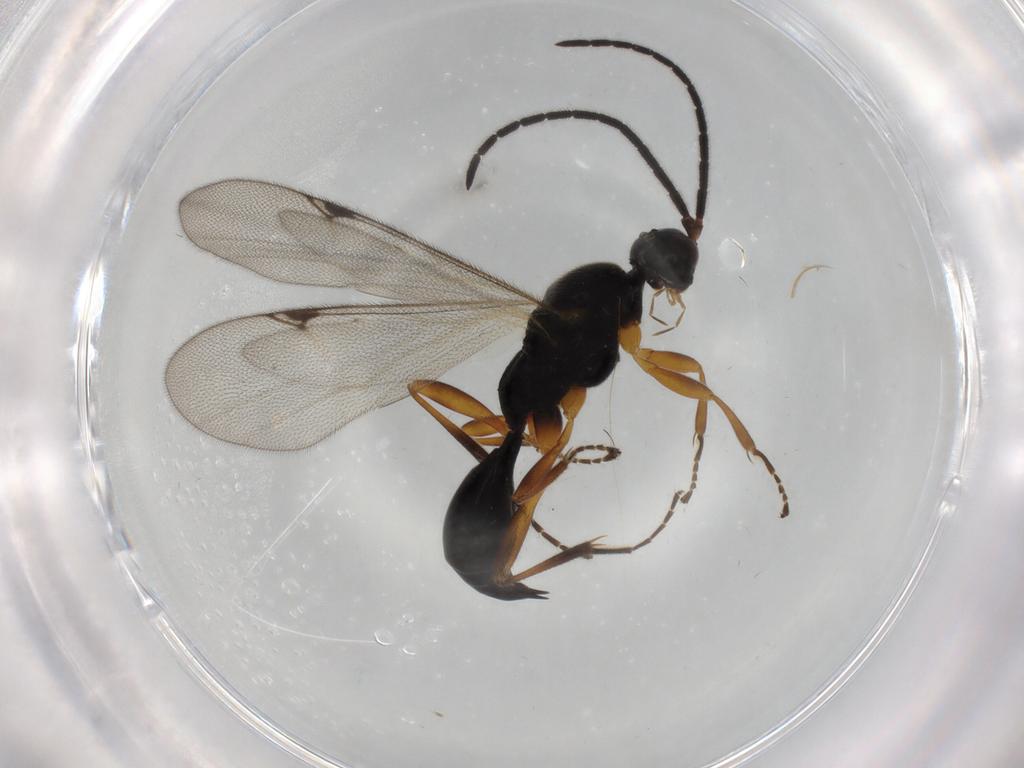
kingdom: Animalia
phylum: Arthropoda
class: Insecta
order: Hymenoptera
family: Proctotrupidae
